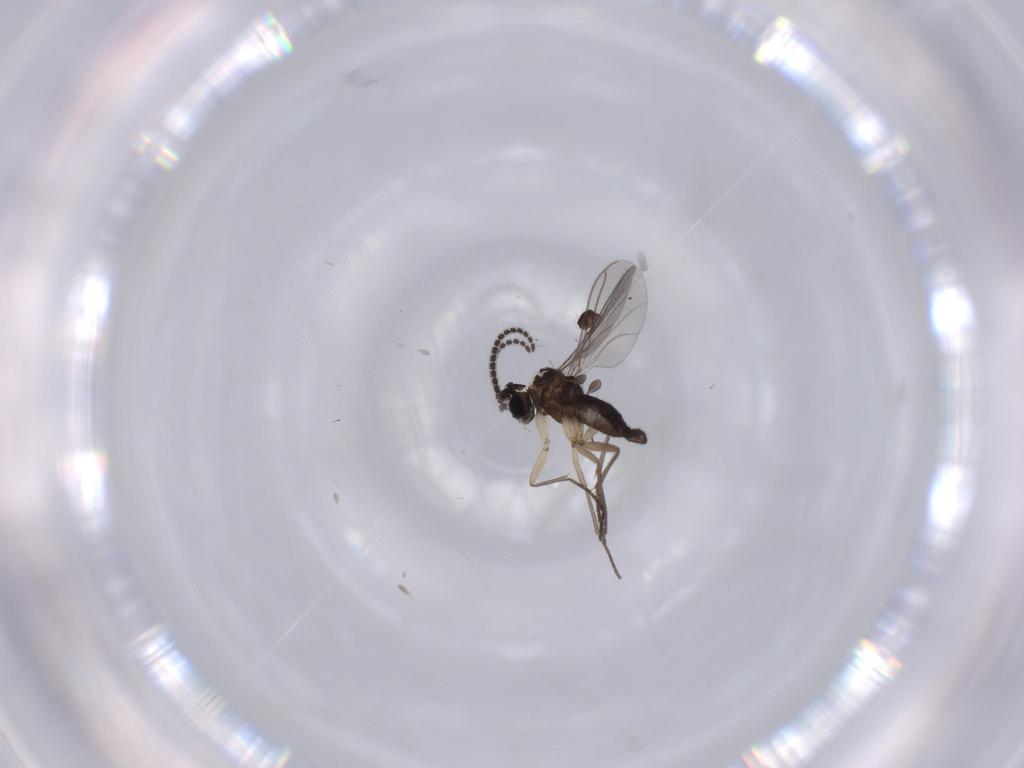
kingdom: Animalia
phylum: Arthropoda
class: Insecta
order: Diptera
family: Sciaridae
